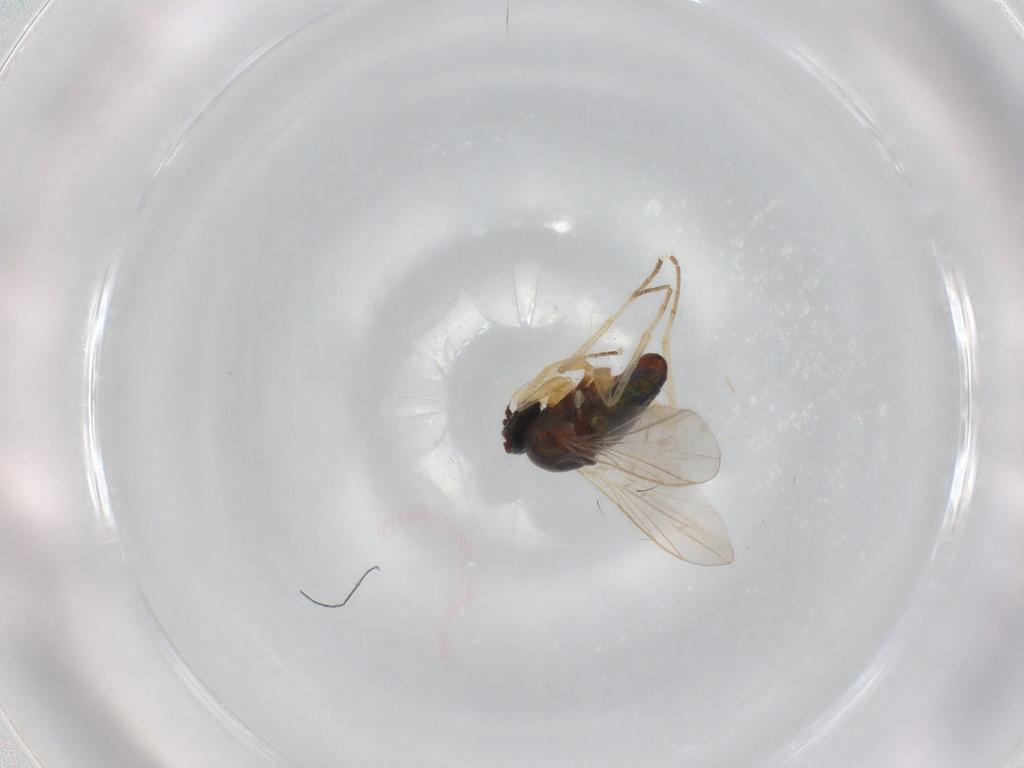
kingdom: Animalia
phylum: Arthropoda
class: Insecta
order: Diptera
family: Dolichopodidae
